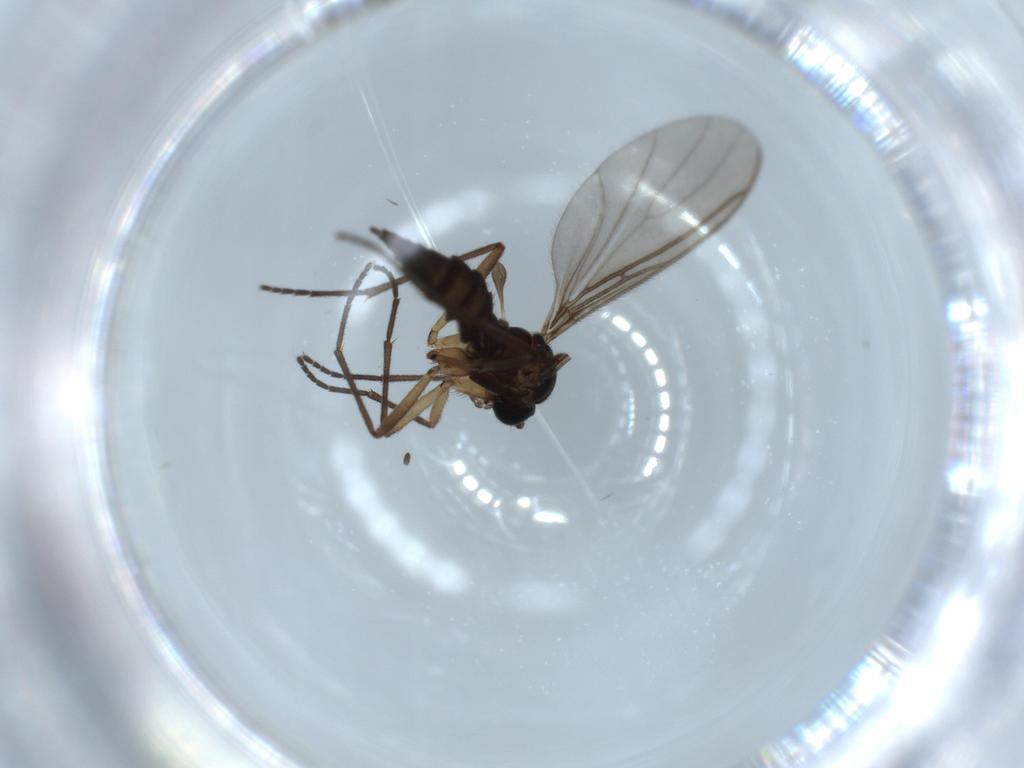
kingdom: Animalia
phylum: Arthropoda
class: Insecta
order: Diptera
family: Sciaridae
